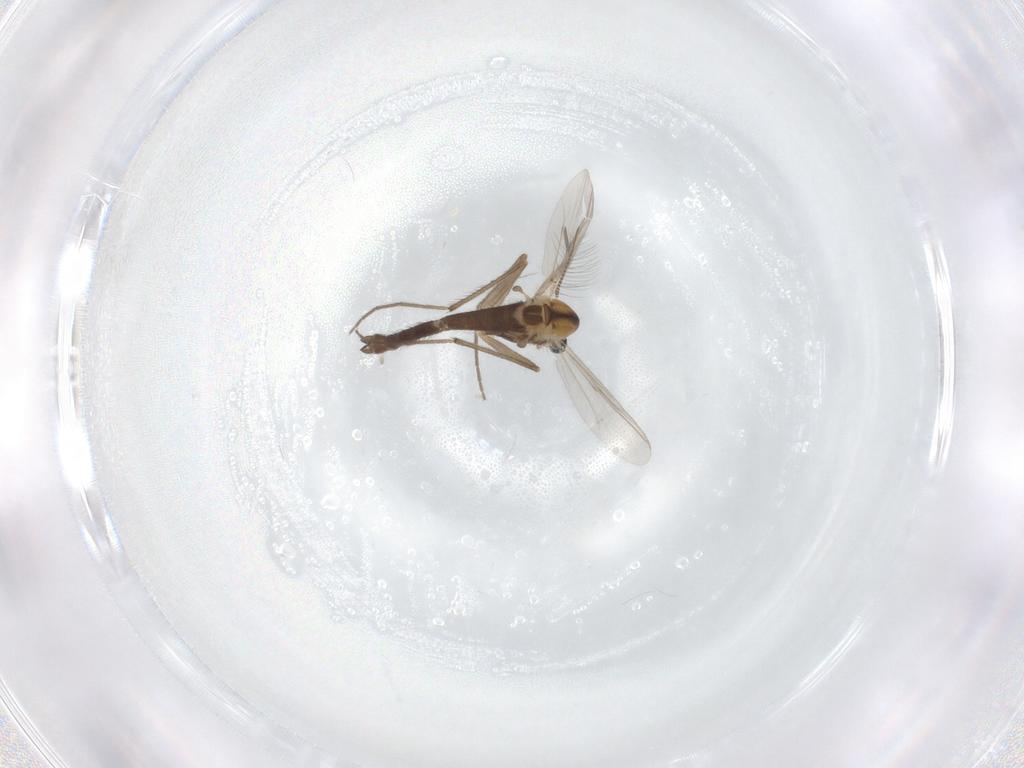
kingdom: Animalia
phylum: Arthropoda
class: Insecta
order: Diptera
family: Chironomidae
